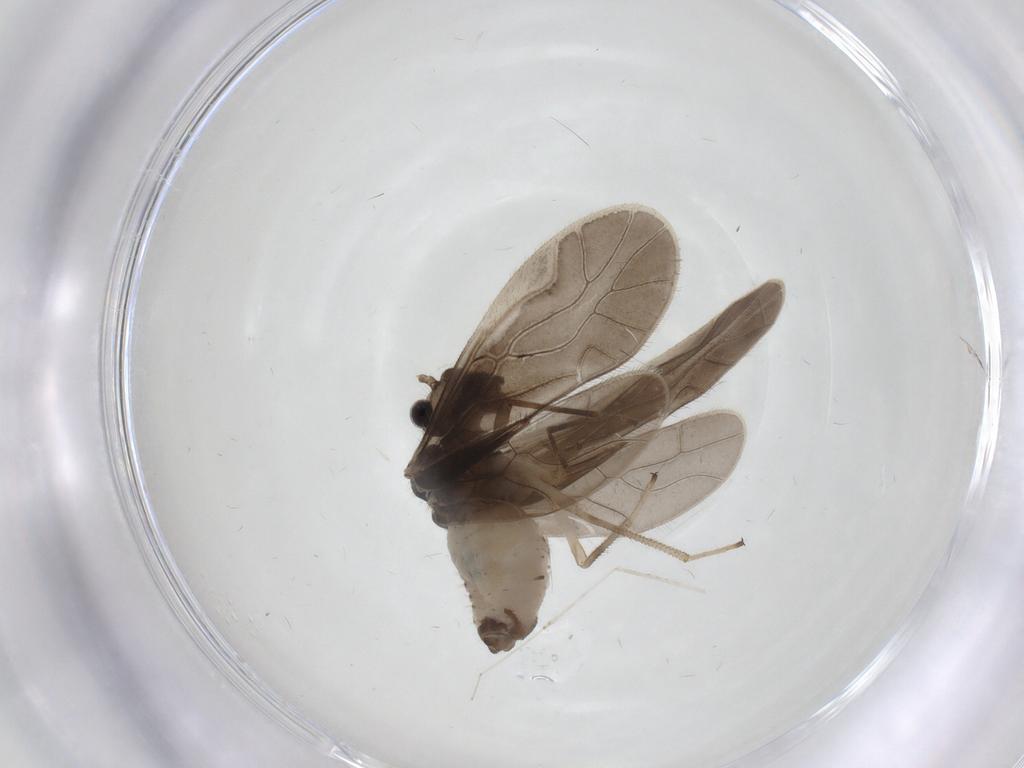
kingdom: Animalia
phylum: Arthropoda
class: Insecta
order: Psocodea
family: Caeciliusidae
